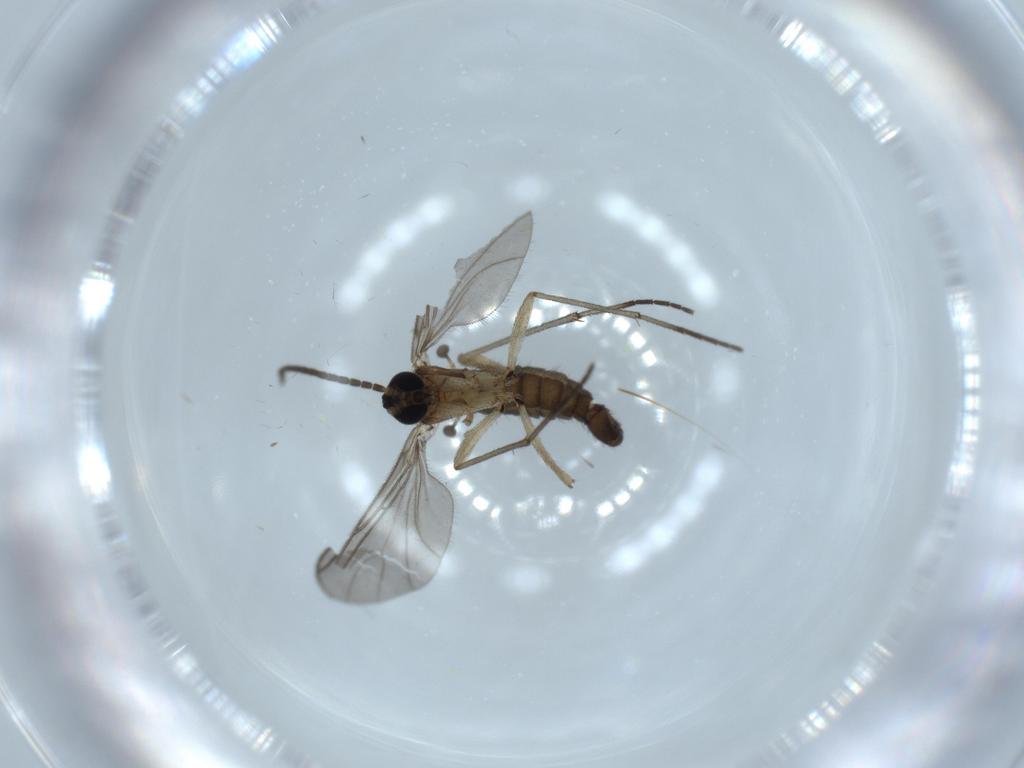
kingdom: Animalia
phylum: Arthropoda
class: Insecta
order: Diptera
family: Sciaridae
